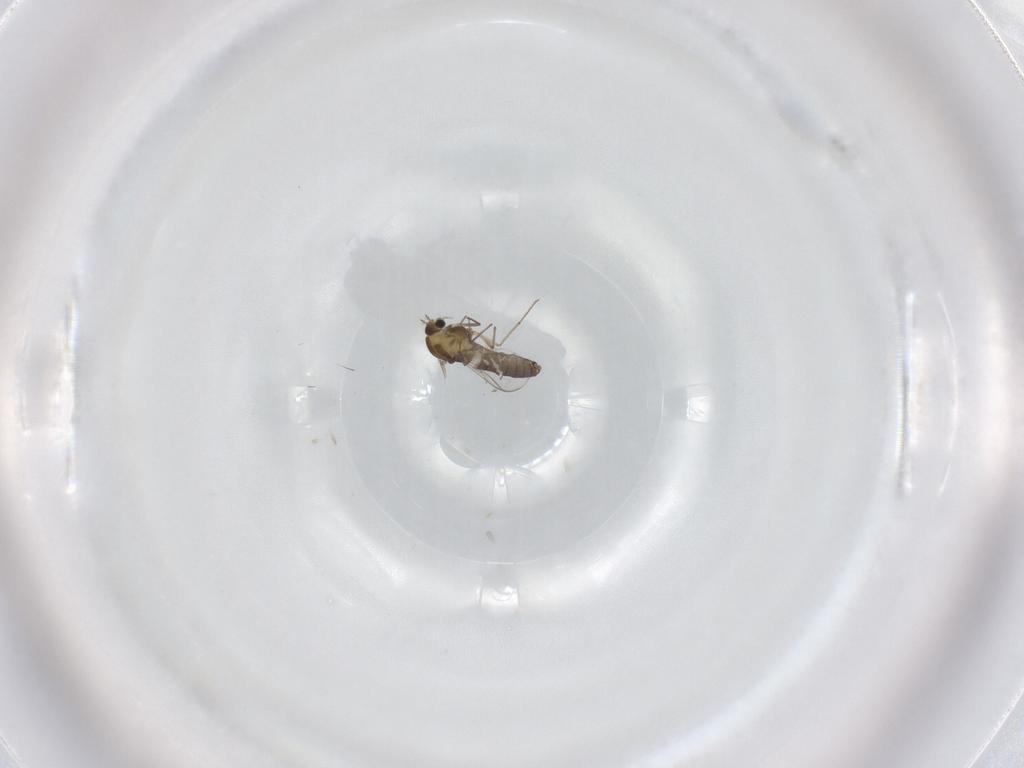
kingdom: Animalia
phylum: Arthropoda
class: Insecta
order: Diptera
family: Chironomidae
